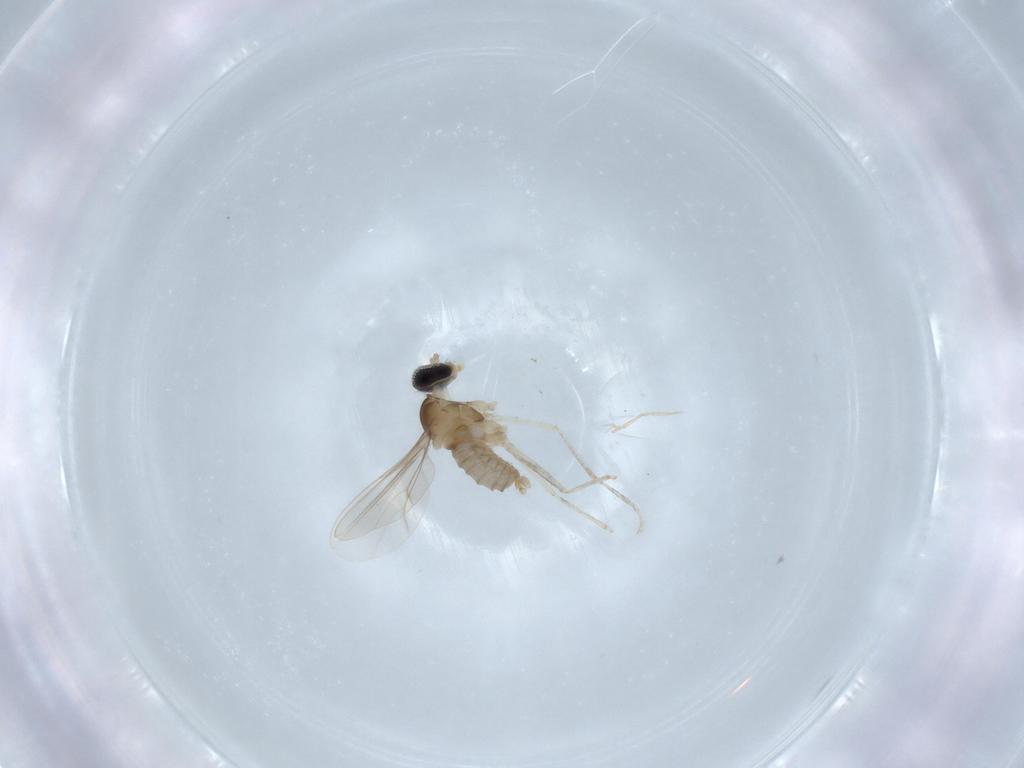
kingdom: Animalia
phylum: Arthropoda
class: Insecta
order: Diptera
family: Cecidomyiidae
